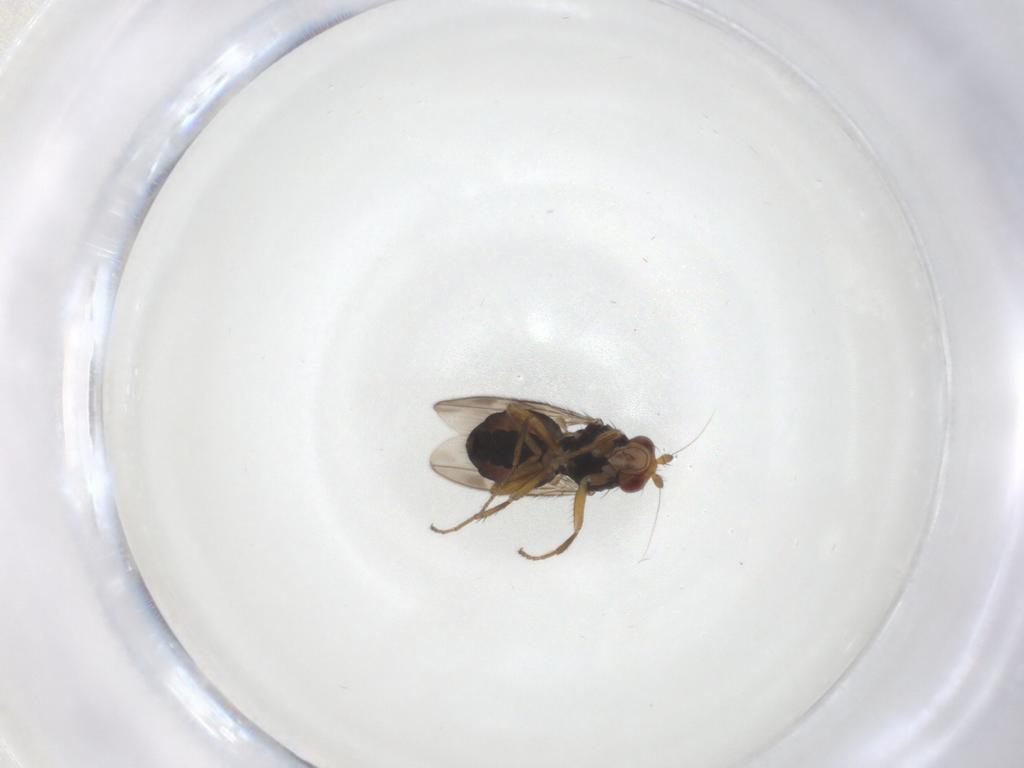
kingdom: Animalia
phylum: Arthropoda
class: Insecta
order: Diptera
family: Sphaeroceridae
